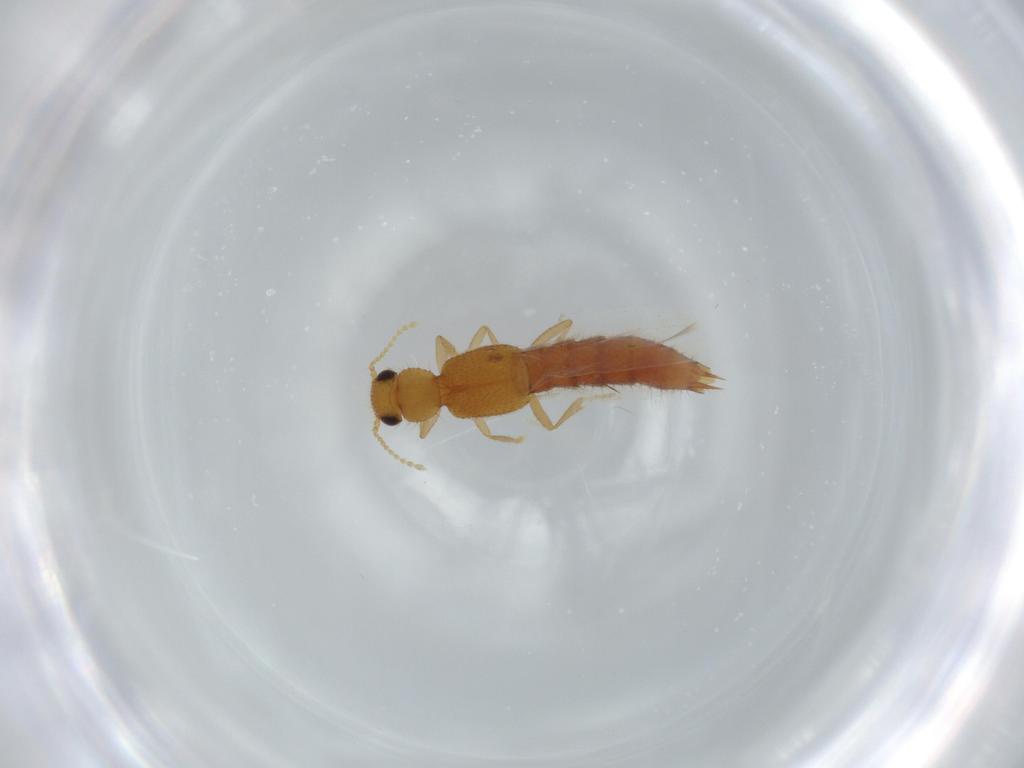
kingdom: Animalia
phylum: Arthropoda
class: Insecta
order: Coleoptera
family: Staphylinidae
